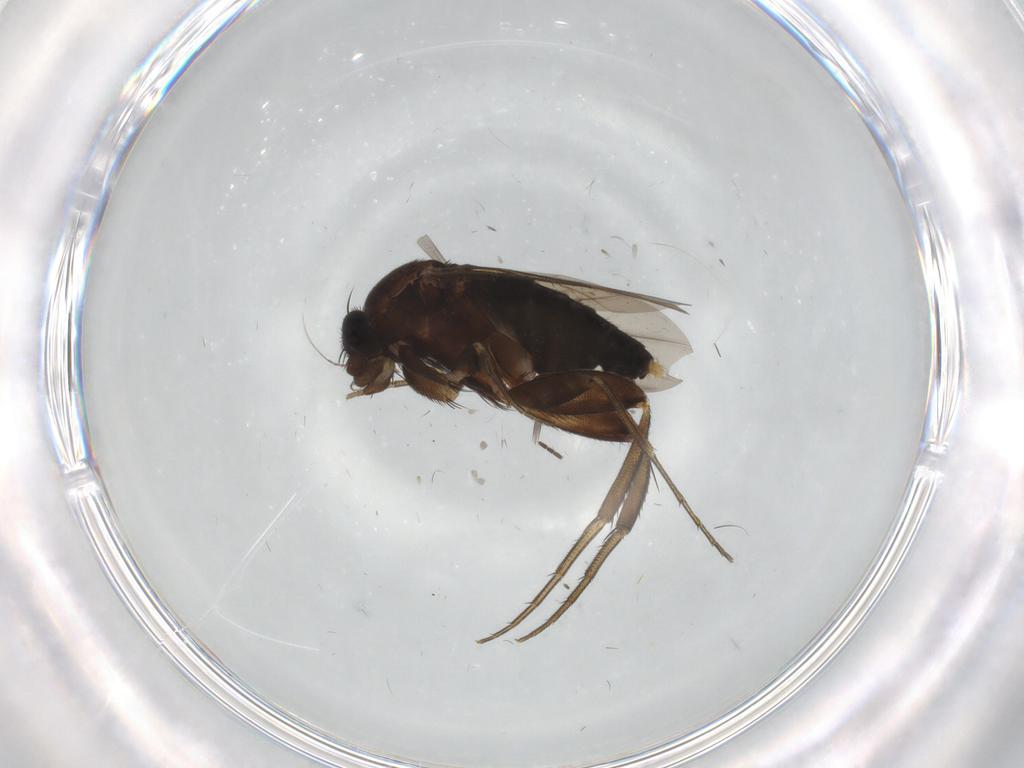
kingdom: Animalia
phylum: Arthropoda
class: Insecta
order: Diptera
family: Phoridae
